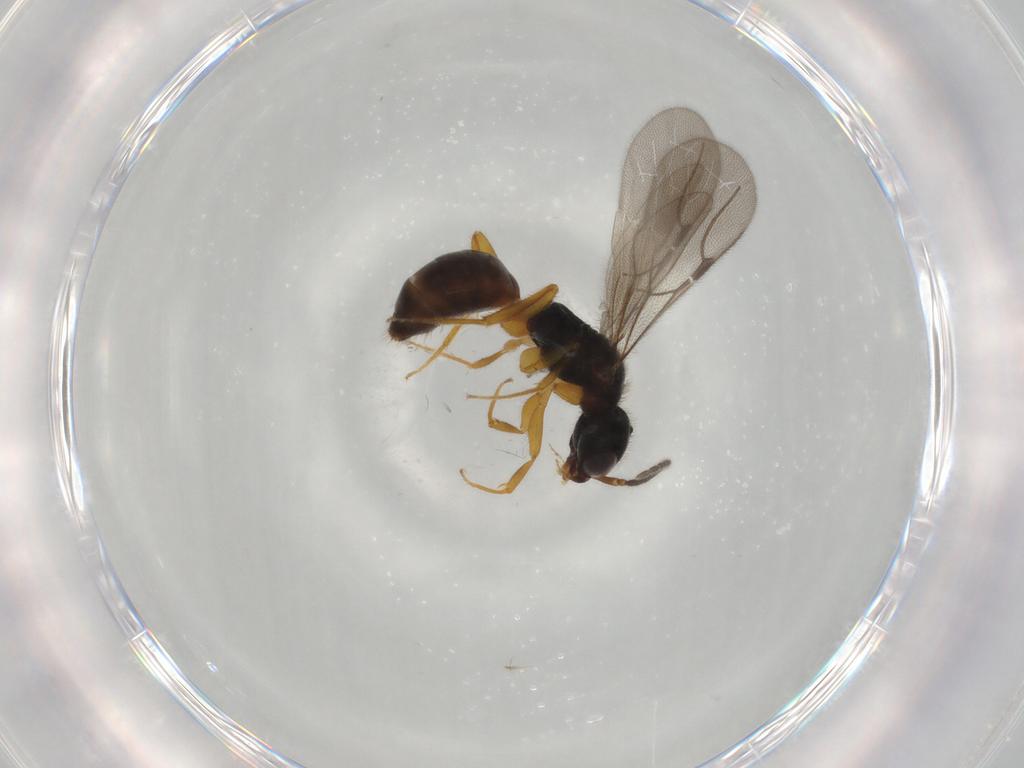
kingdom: Animalia
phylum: Arthropoda
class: Insecta
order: Hymenoptera
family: Bethylidae
